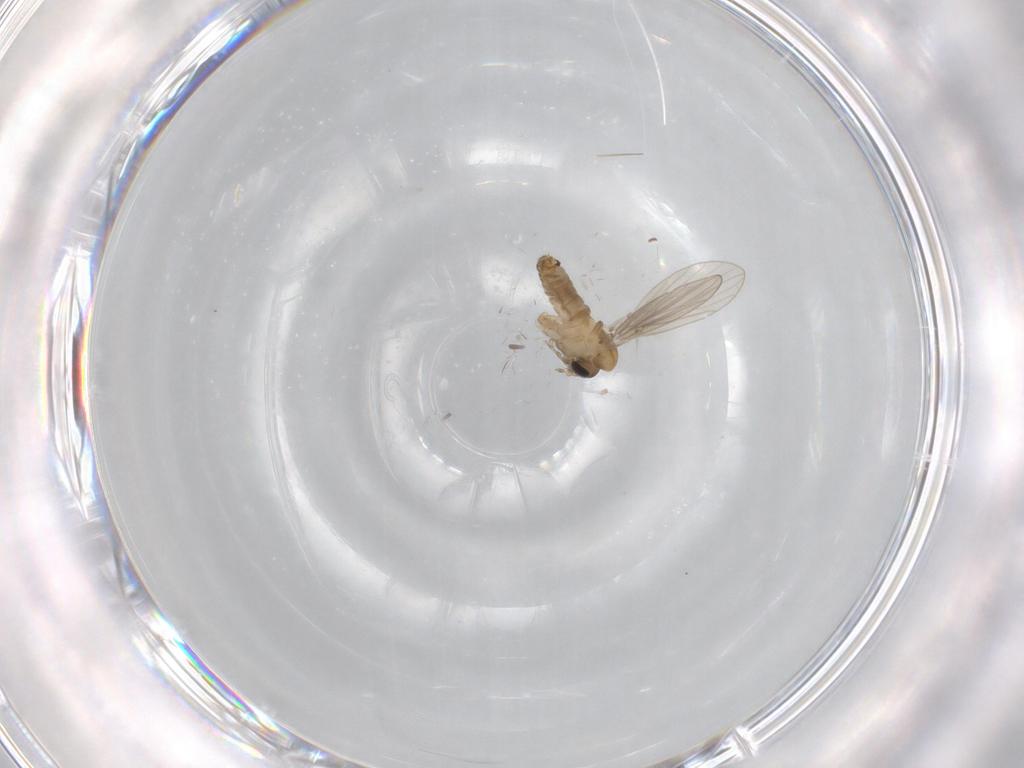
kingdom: Animalia
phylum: Arthropoda
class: Insecta
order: Diptera
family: Psychodidae
